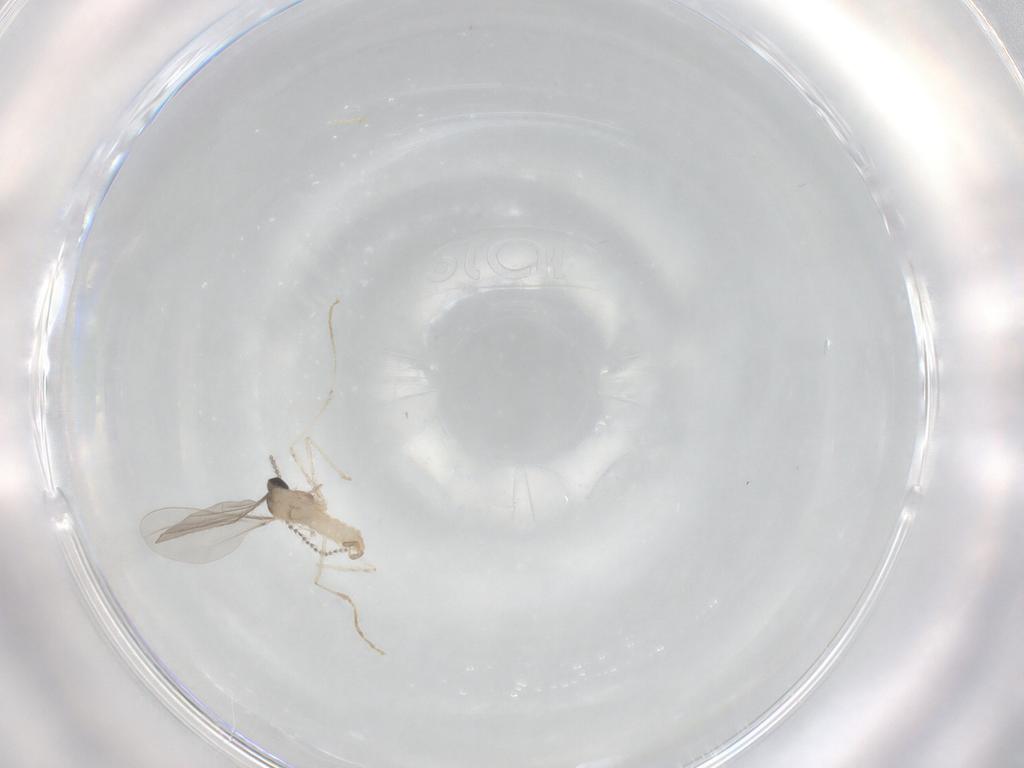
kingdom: Animalia
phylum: Arthropoda
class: Insecta
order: Diptera
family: Cecidomyiidae
